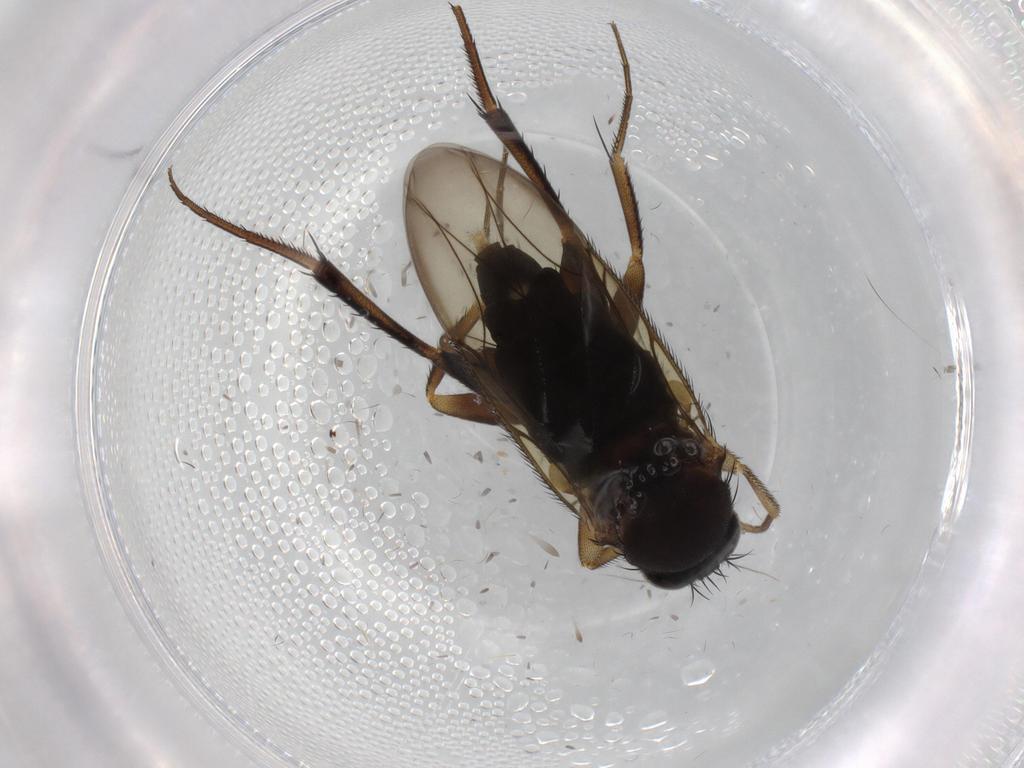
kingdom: Animalia
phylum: Arthropoda
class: Insecta
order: Diptera
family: Phoridae
